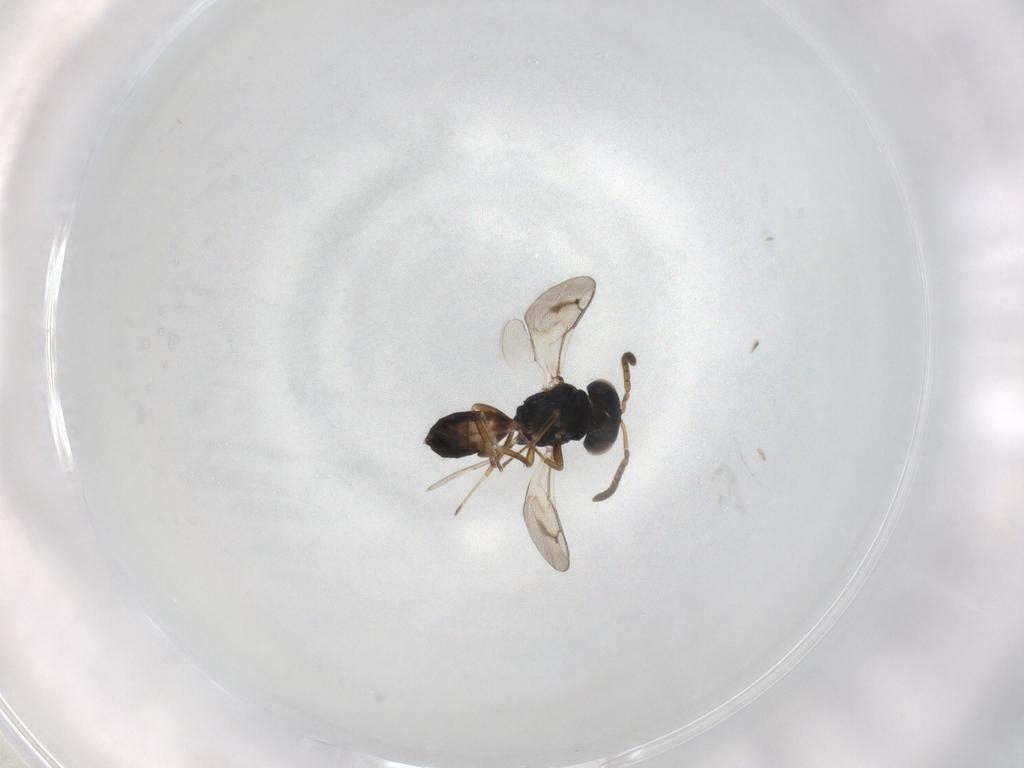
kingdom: Animalia
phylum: Arthropoda
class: Insecta
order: Hymenoptera
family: Pteromalidae
